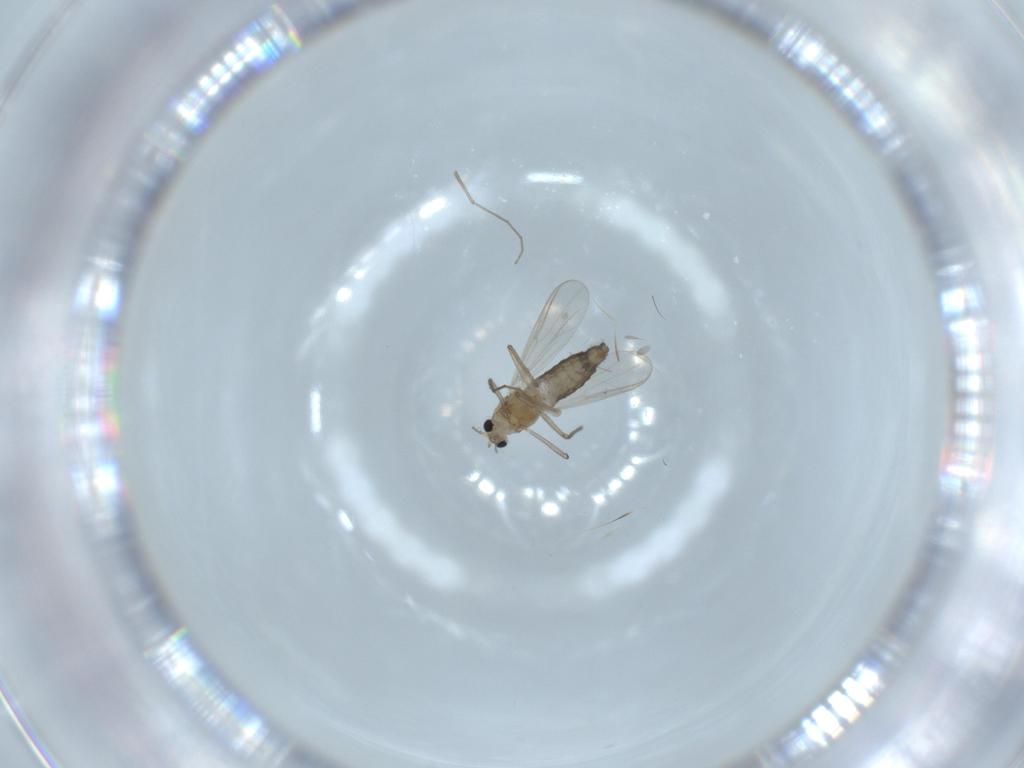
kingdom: Animalia
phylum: Arthropoda
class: Insecta
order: Diptera
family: Chironomidae
